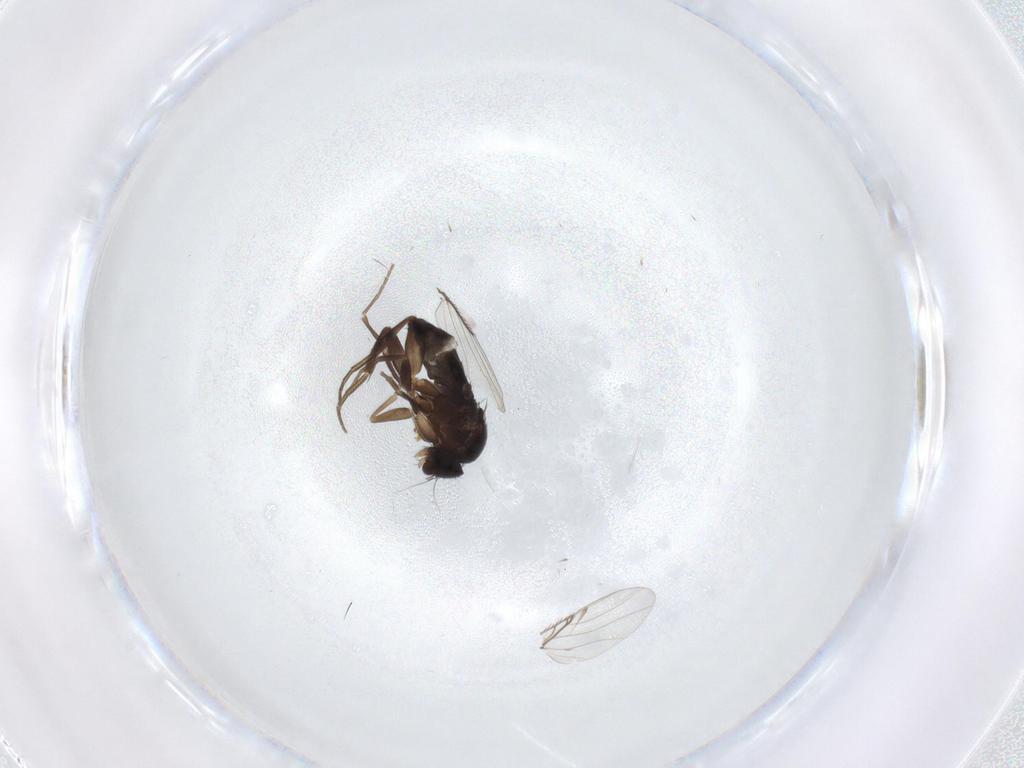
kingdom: Animalia
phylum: Arthropoda
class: Insecta
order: Diptera
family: Phoridae
